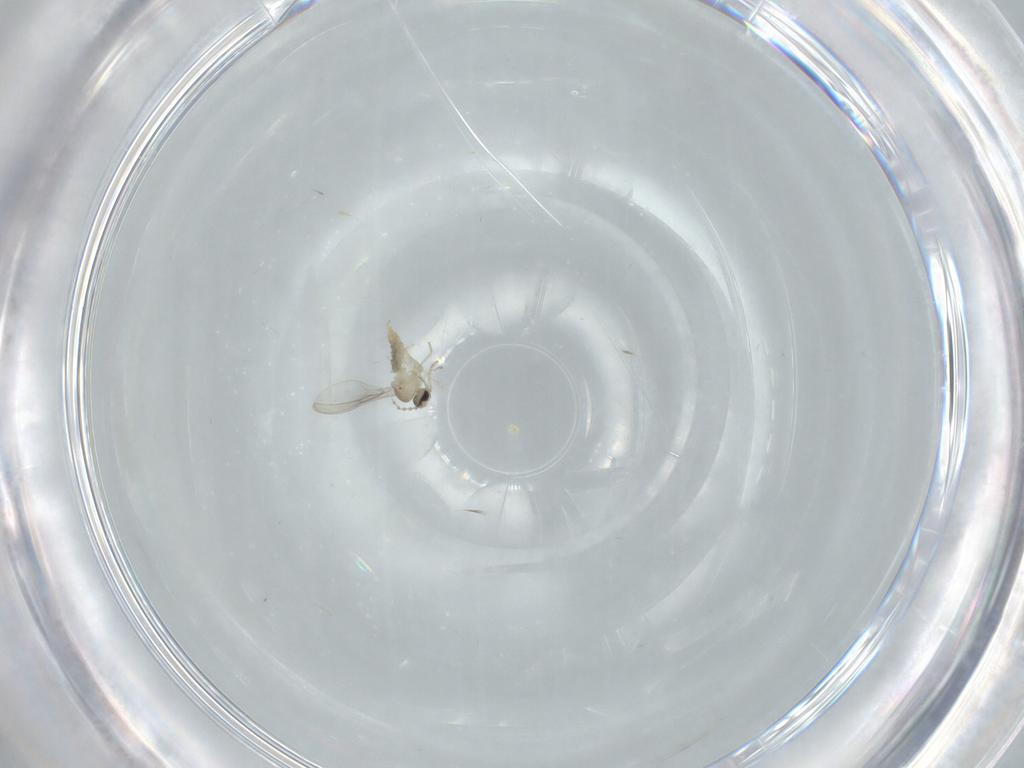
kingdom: Animalia
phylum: Arthropoda
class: Insecta
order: Diptera
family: Cecidomyiidae
